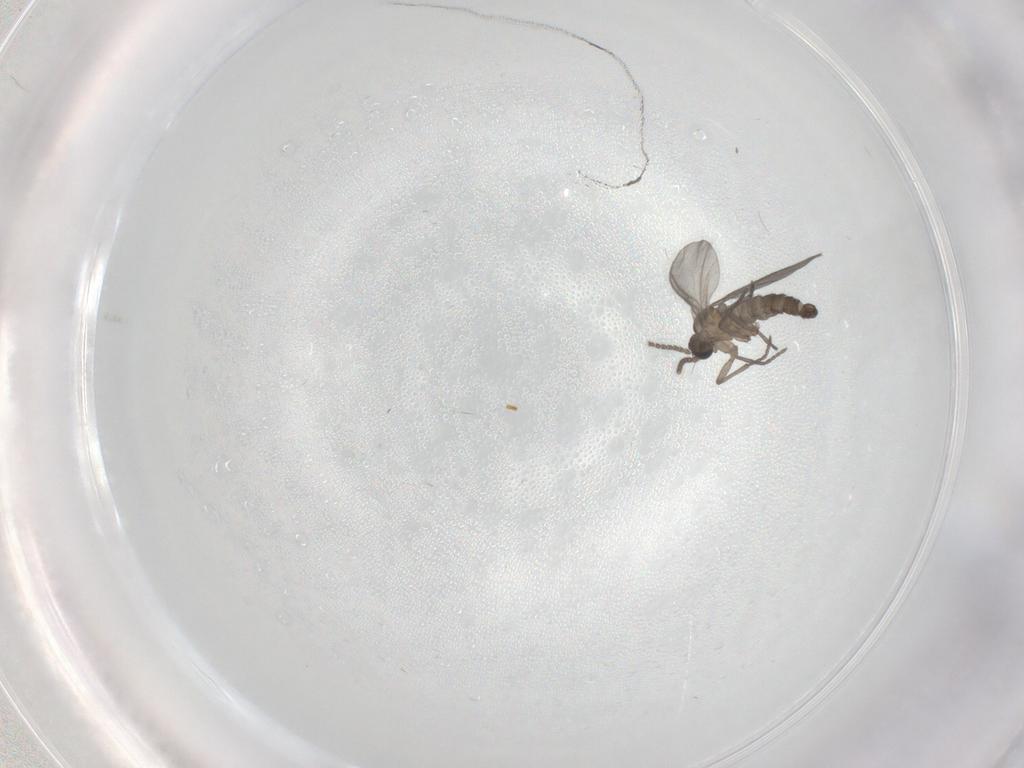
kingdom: Animalia
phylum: Arthropoda
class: Insecta
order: Diptera
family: Sciaridae
